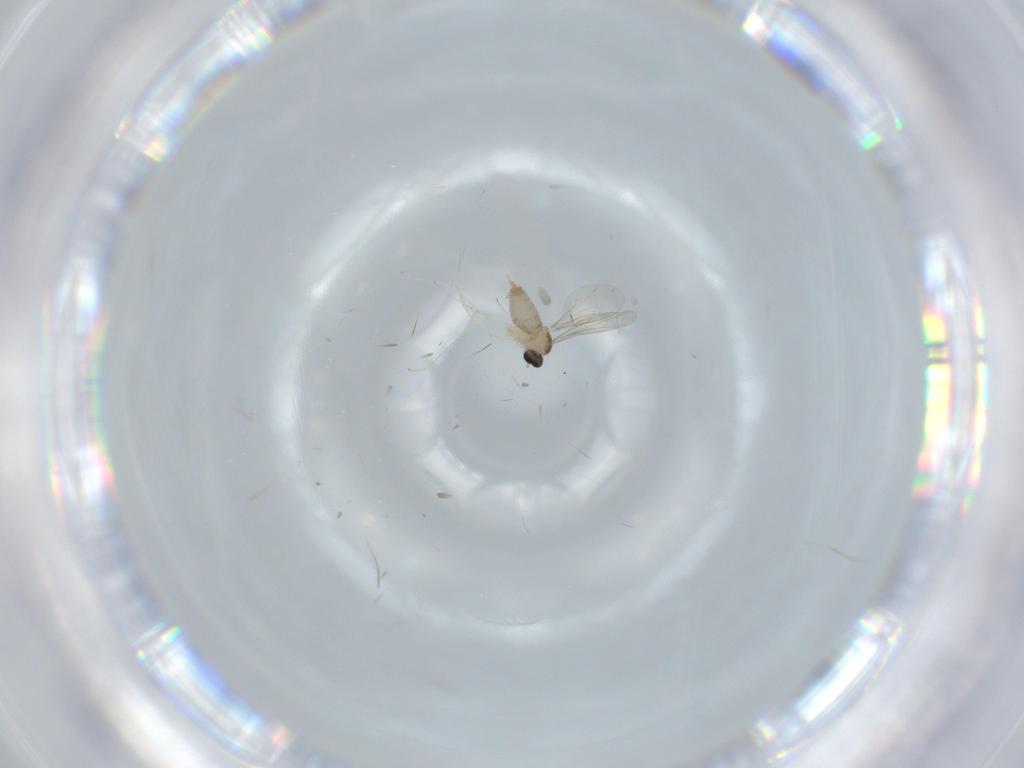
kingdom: Animalia
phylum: Arthropoda
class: Insecta
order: Diptera
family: Cecidomyiidae
